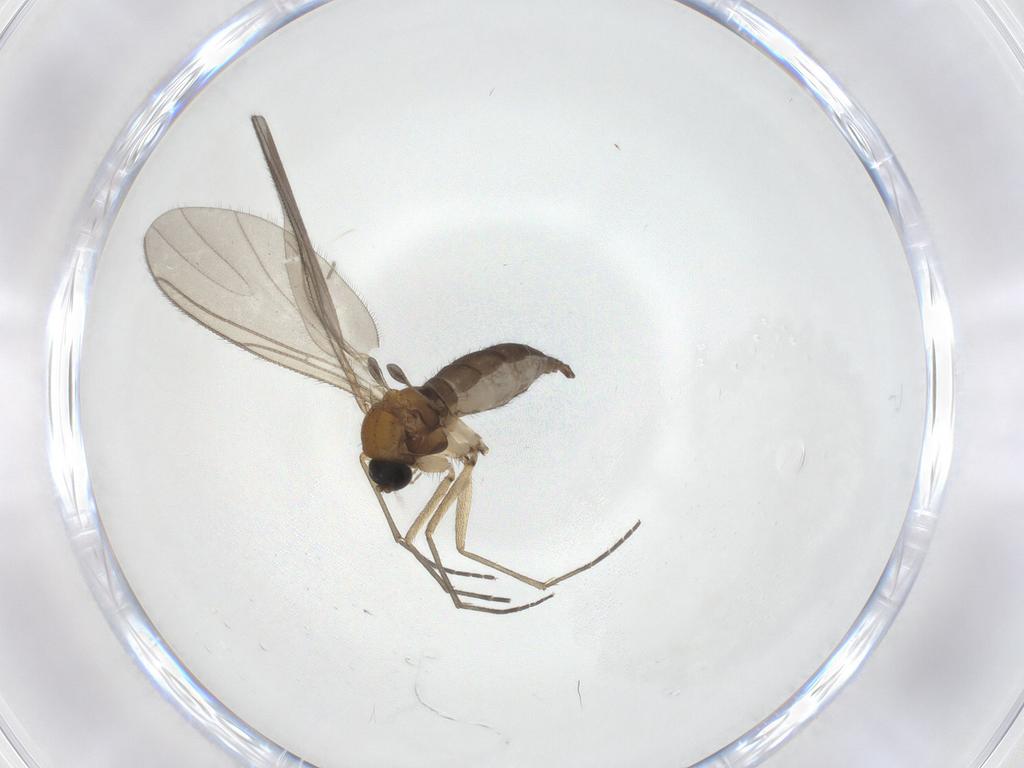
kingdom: Animalia
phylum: Arthropoda
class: Insecta
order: Diptera
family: Sciaridae
